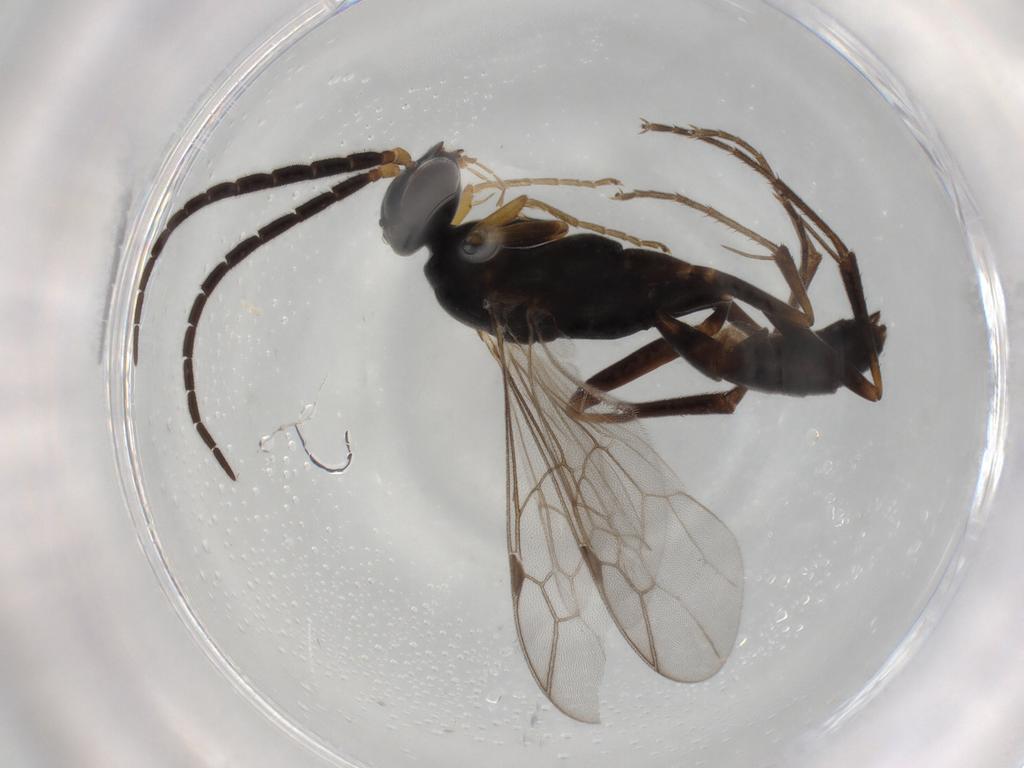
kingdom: Animalia
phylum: Arthropoda
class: Insecta
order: Hymenoptera
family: Pompilidae
